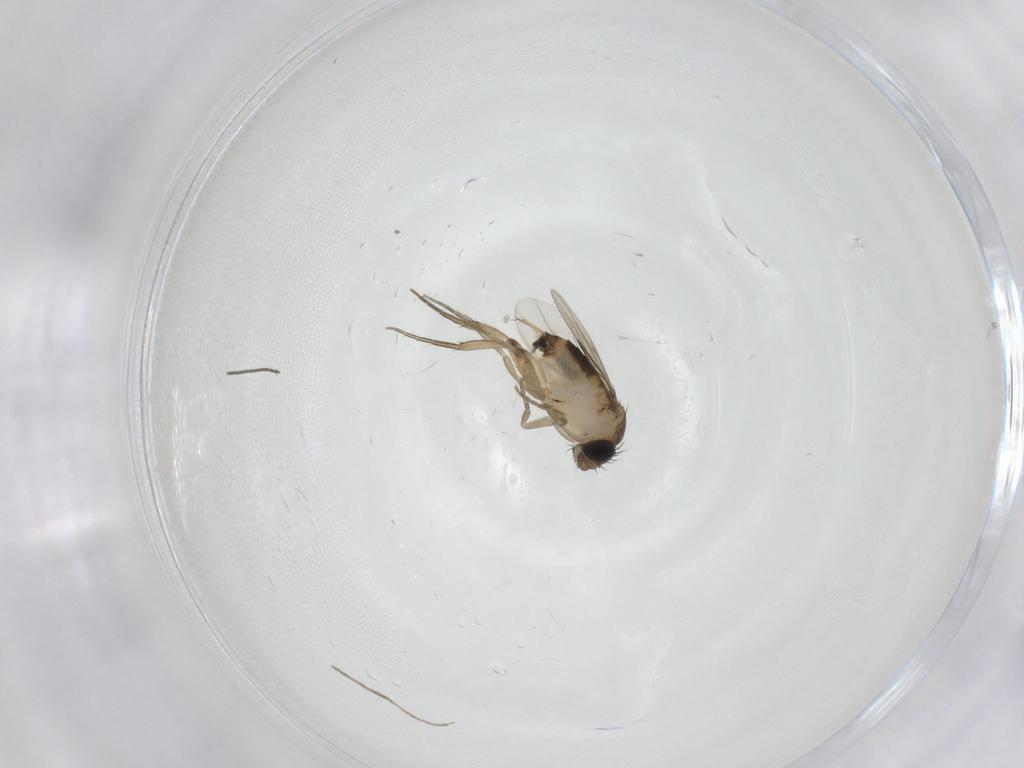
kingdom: Animalia
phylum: Arthropoda
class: Insecta
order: Diptera
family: Phoridae
